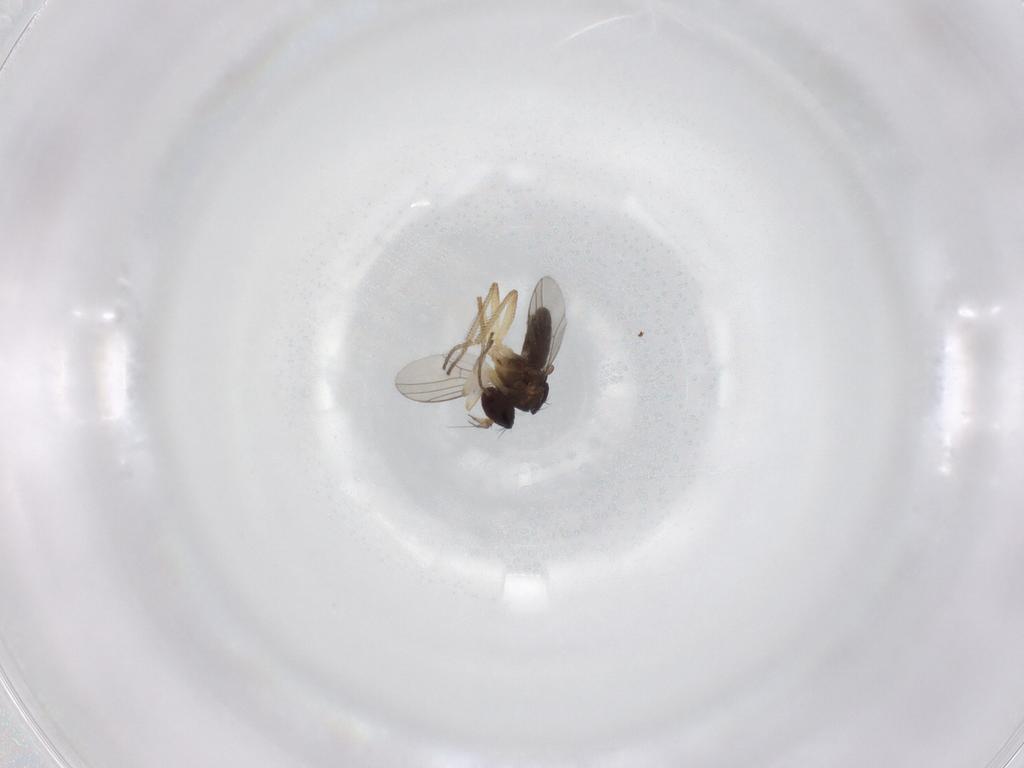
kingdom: Animalia
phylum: Arthropoda
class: Insecta
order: Diptera
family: Dolichopodidae
